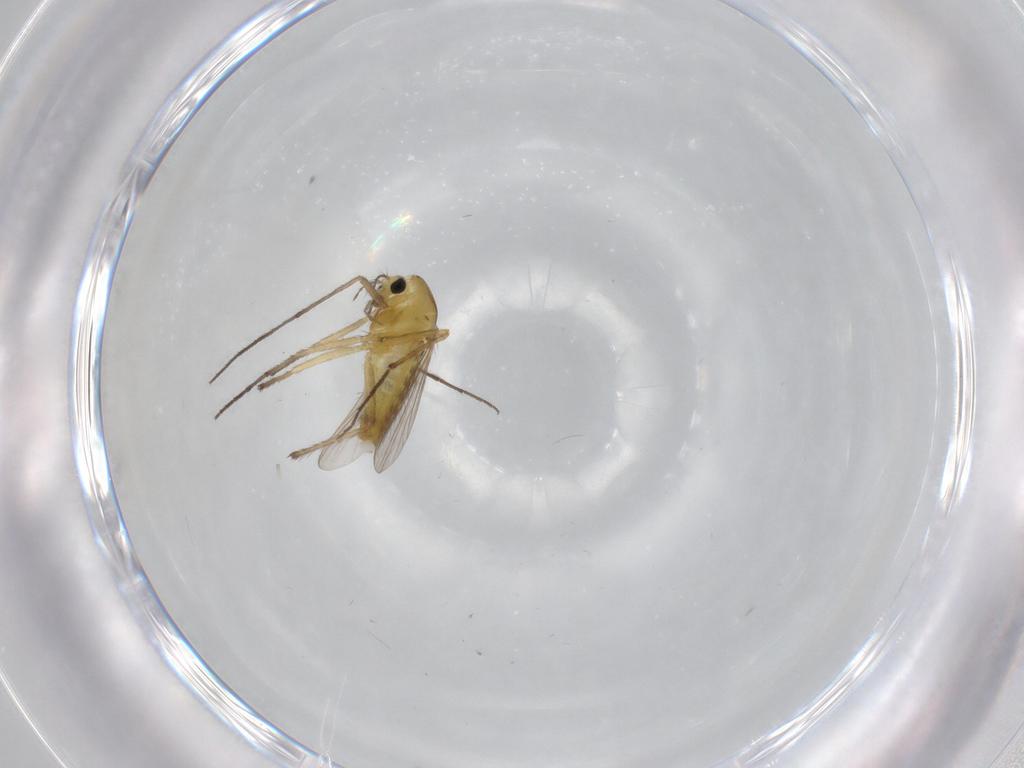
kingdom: Animalia
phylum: Arthropoda
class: Insecta
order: Diptera
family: Chironomidae
